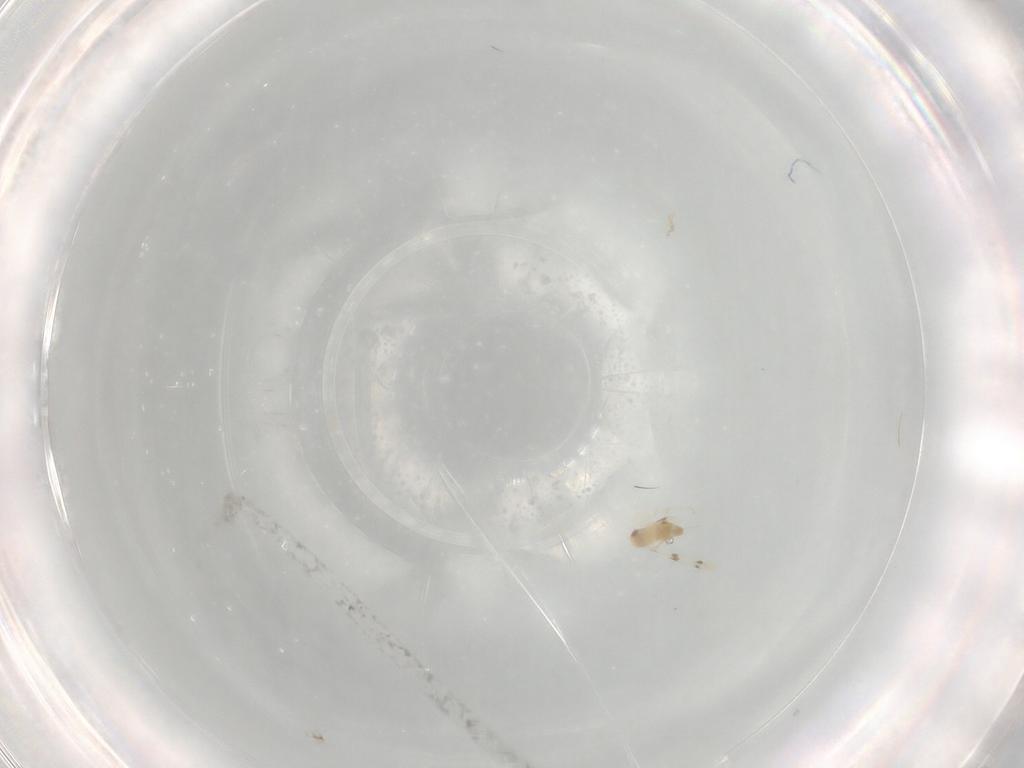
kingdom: Animalia
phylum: Arthropoda
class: Insecta
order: Hemiptera
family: Aleyrodidae
